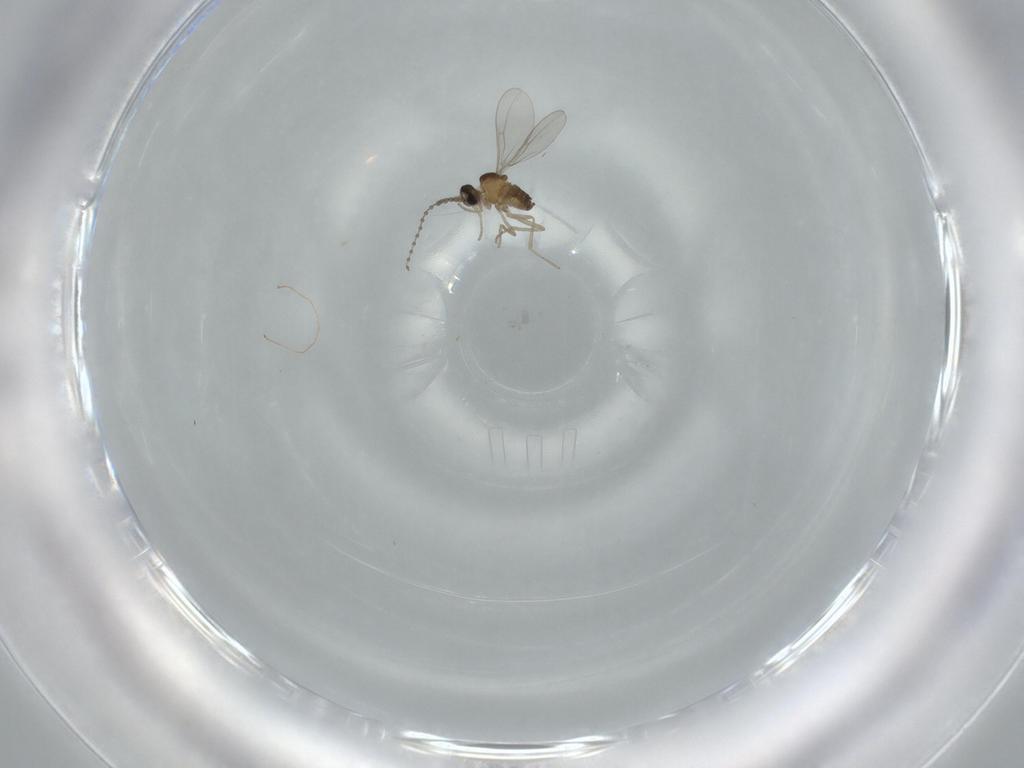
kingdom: Animalia
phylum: Arthropoda
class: Insecta
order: Diptera
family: Cecidomyiidae
